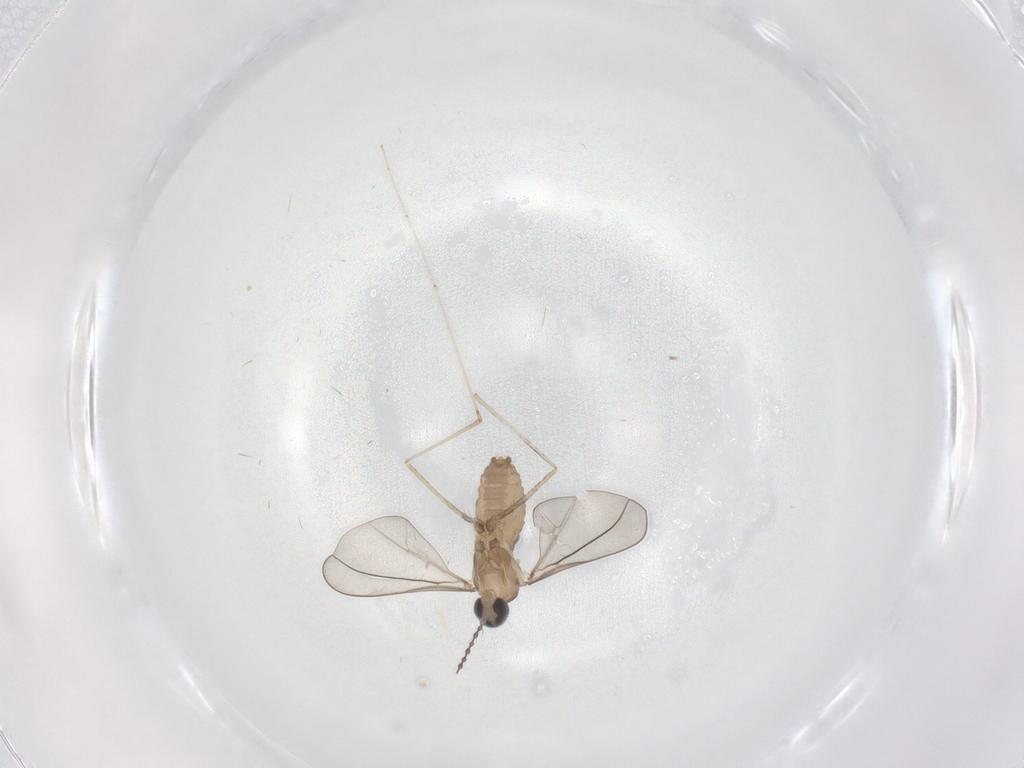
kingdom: Animalia
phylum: Arthropoda
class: Insecta
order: Diptera
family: Cecidomyiidae
